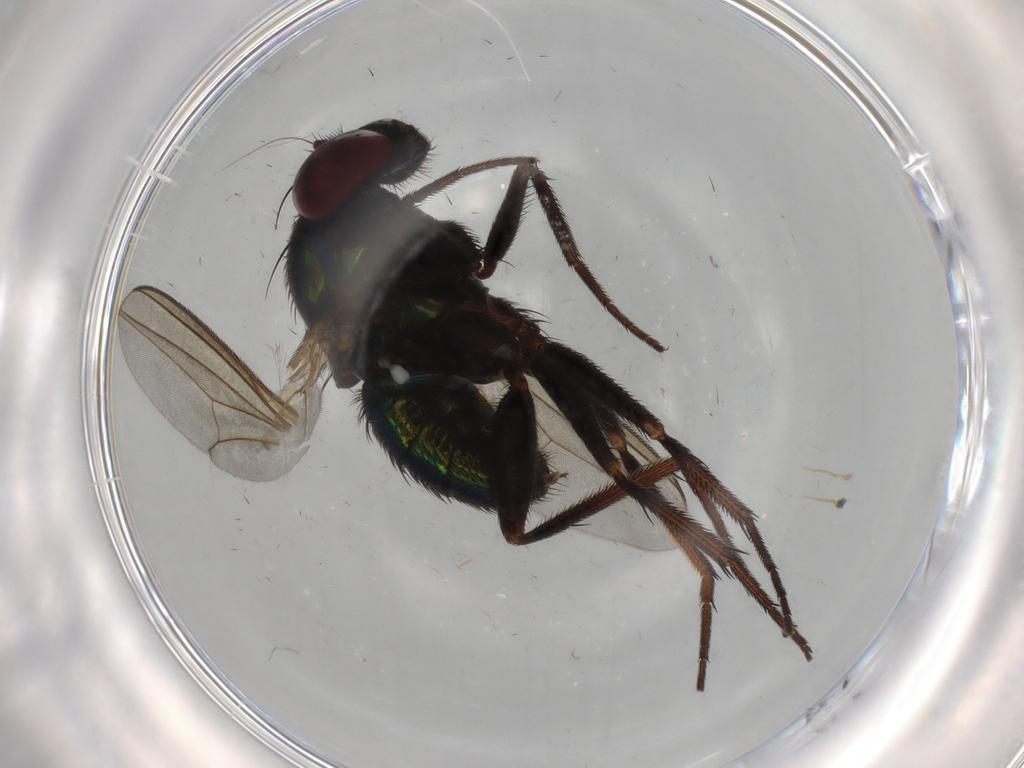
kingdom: Animalia
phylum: Arthropoda
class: Insecta
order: Diptera
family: Dolichopodidae
